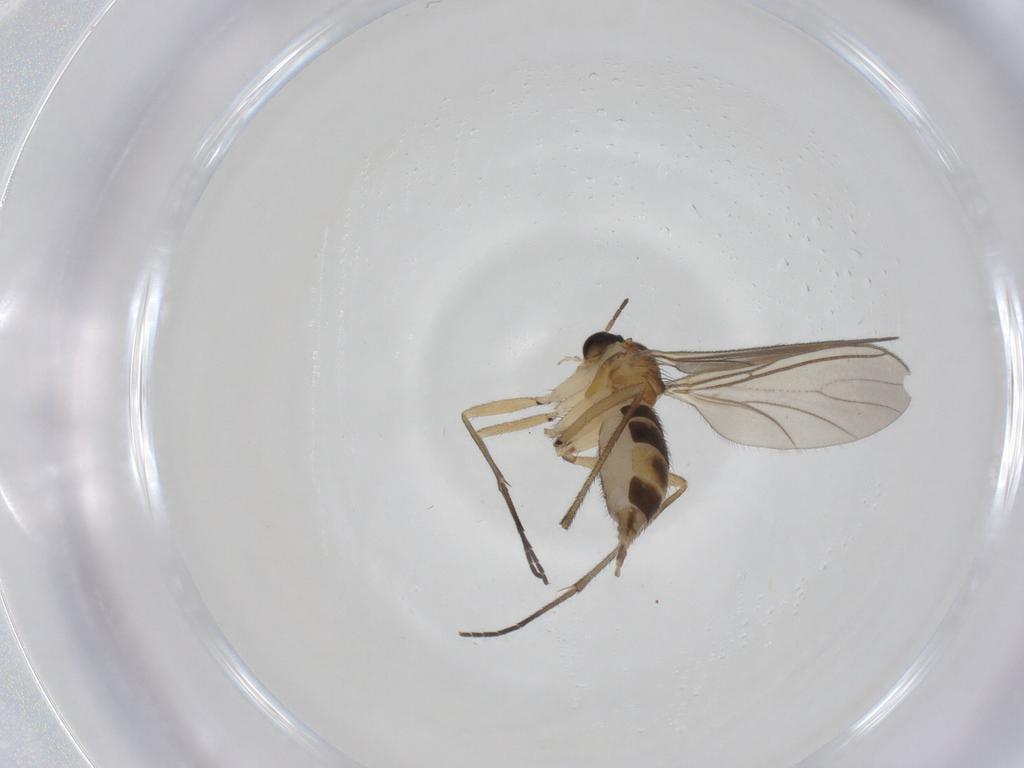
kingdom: Animalia
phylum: Arthropoda
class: Insecta
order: Diptera
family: Sciaridae
